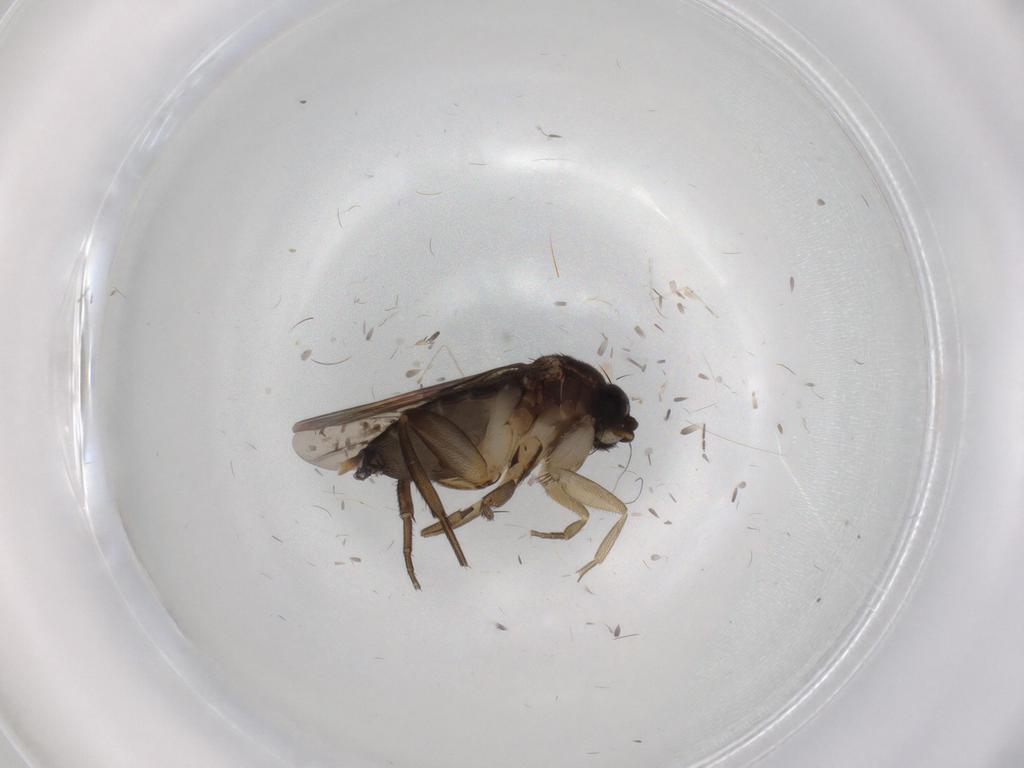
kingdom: Animalia
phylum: Arthropoda
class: Insecta
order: Diptera
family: Phoridae
